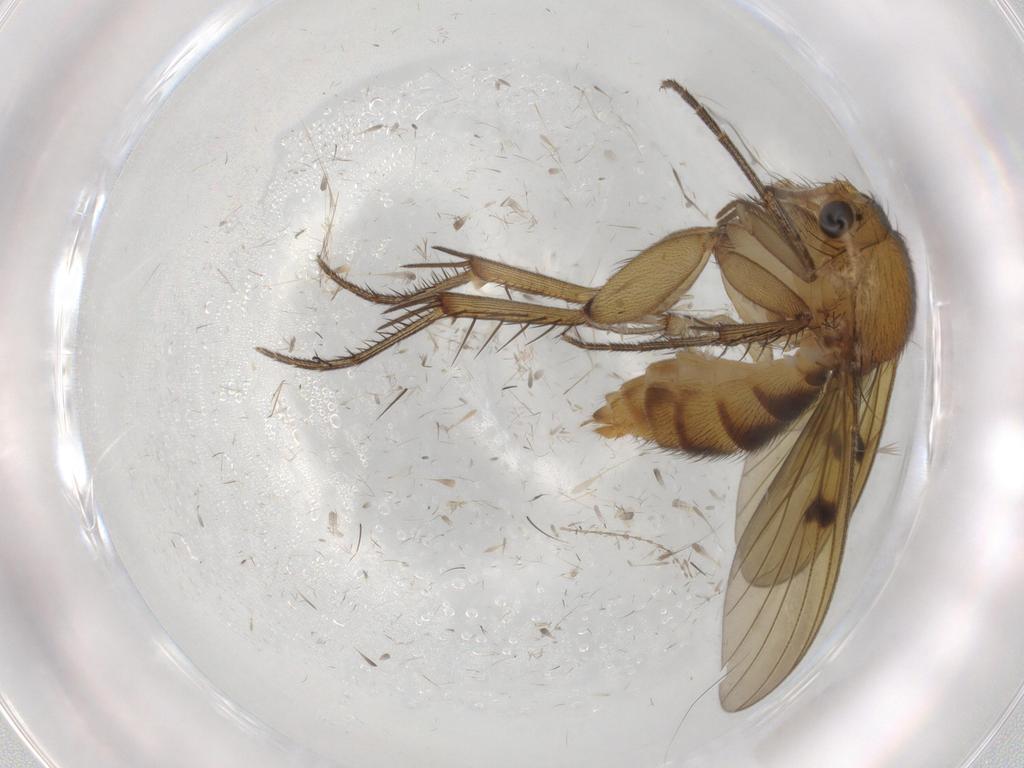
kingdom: Animalia
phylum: Arthropoda
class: Insecta
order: Diptera
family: Mycetophilidae
